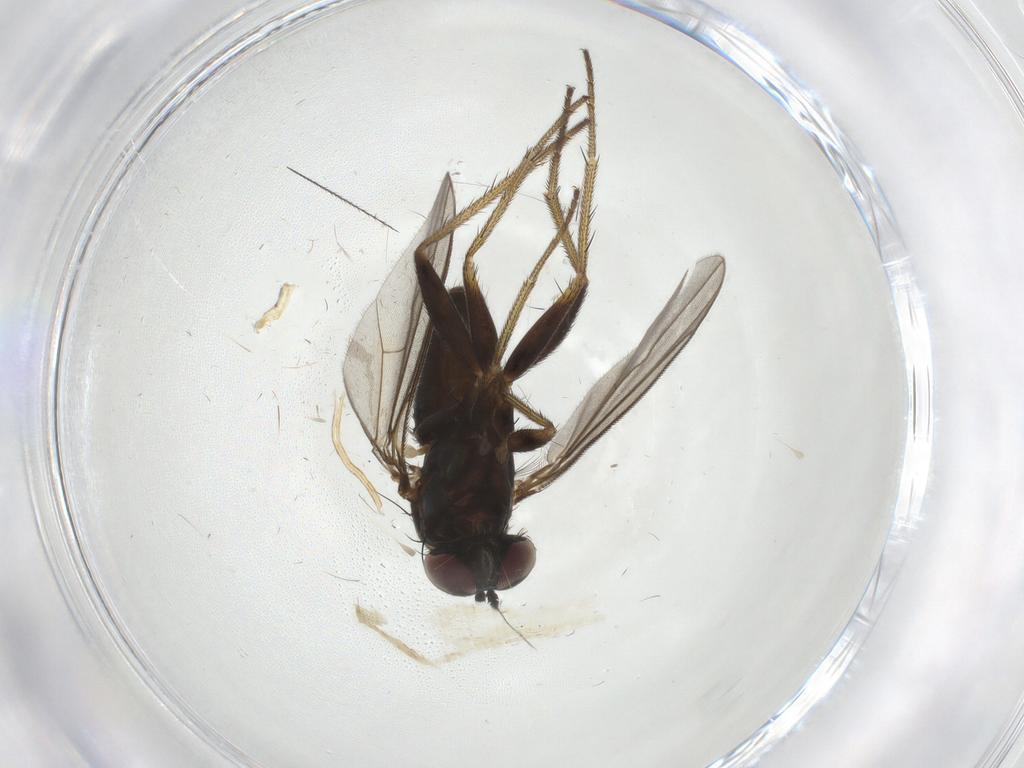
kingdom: Animalia
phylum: Arthropoda
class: Insecta
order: Diptera
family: Dolichopodidae
